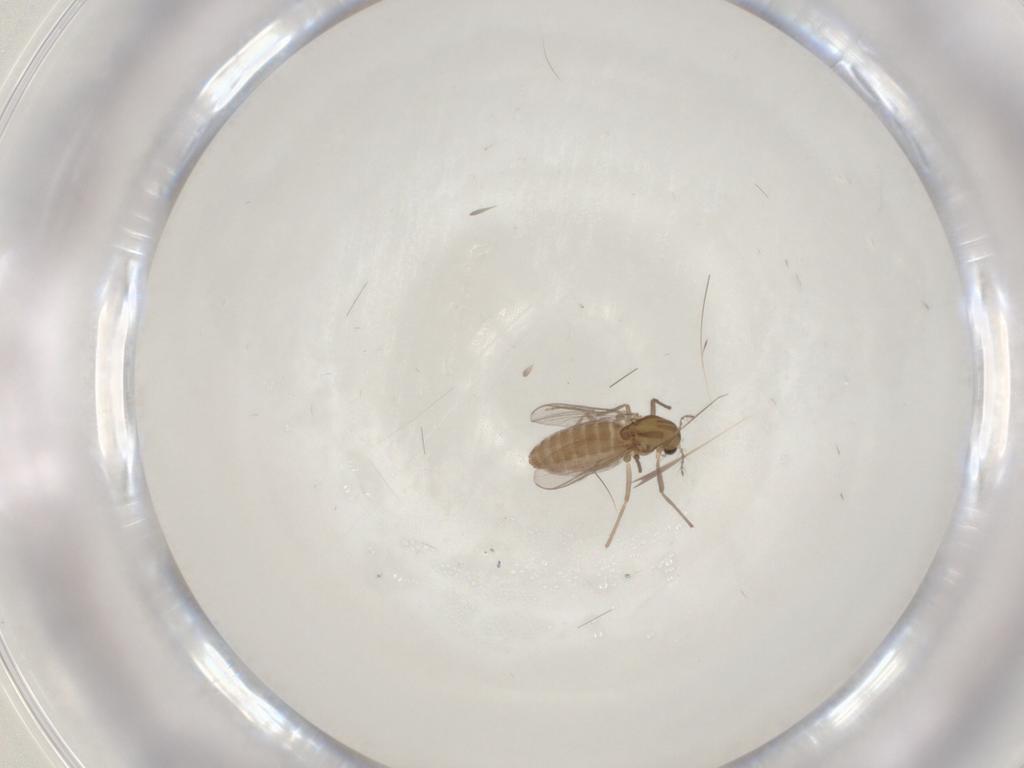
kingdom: Animalia
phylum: Arthropoda
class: Insecta
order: Diptera
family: Chironomidae
